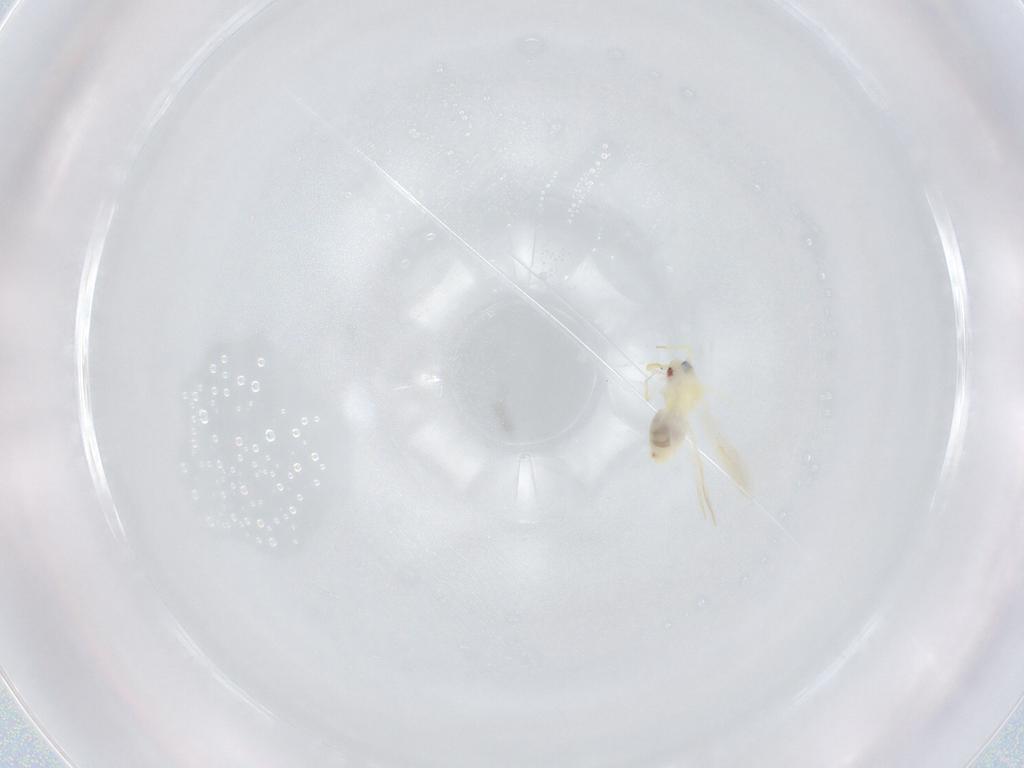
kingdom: Animalia
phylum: Arthropoda
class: Insecta
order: Hemiptera
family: Aleyrodidae
